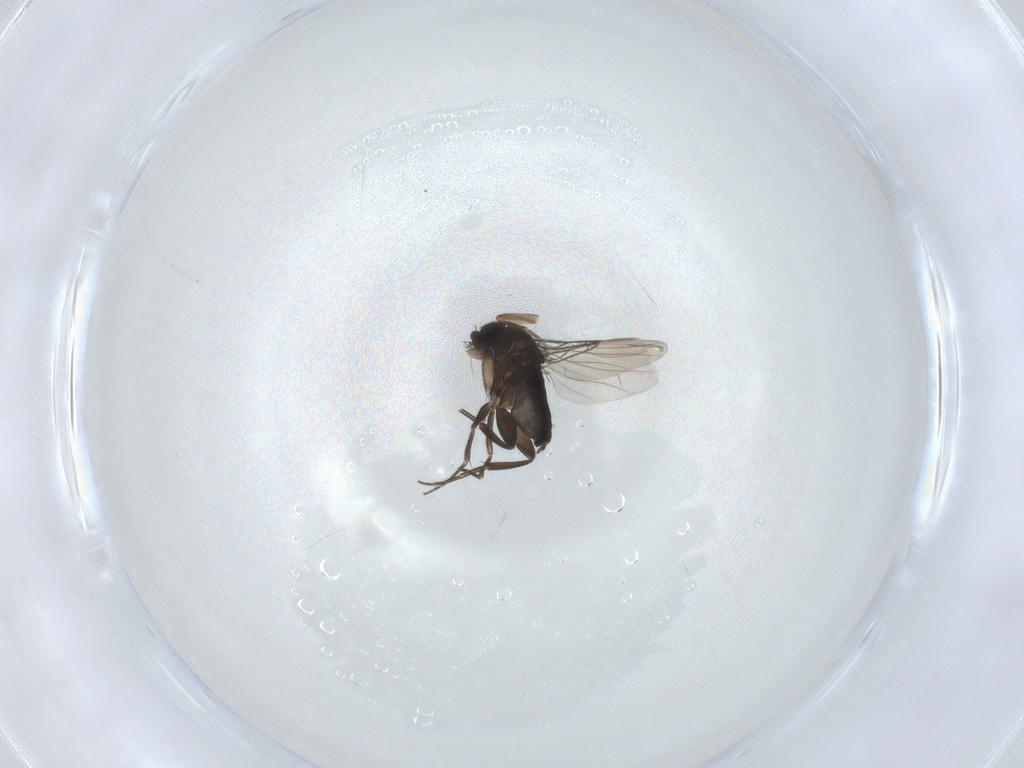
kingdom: Animalia
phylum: Arthropoda
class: Insecta
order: Diptera
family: Phoridae
